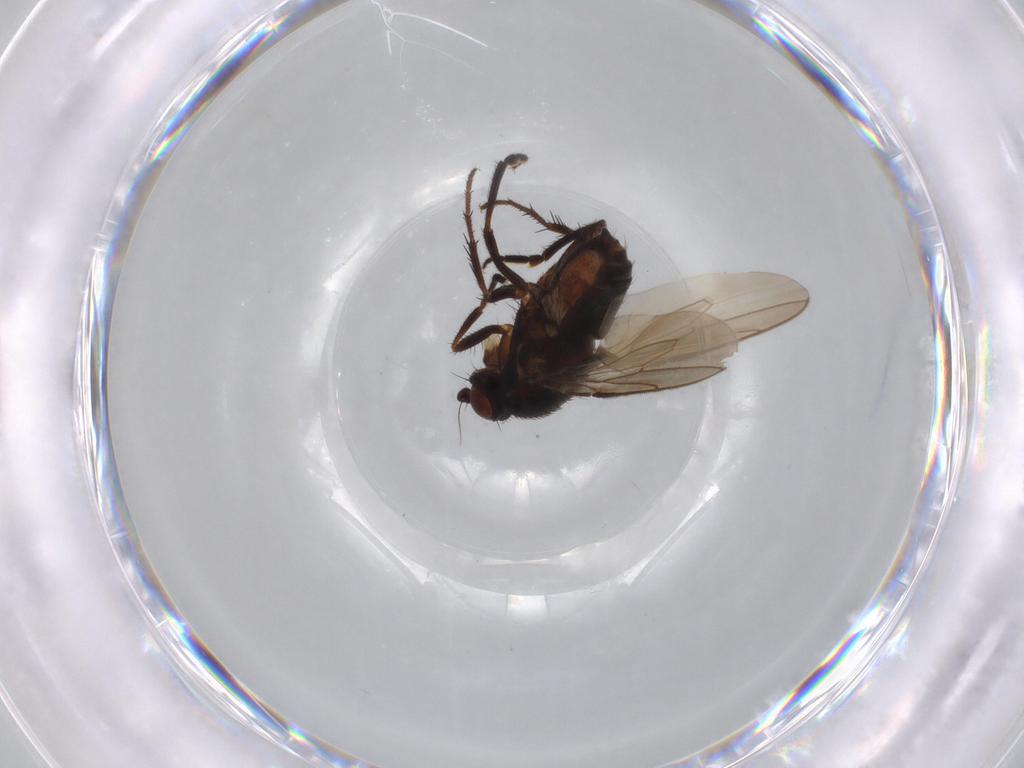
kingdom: Animalia
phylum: Arthropoda
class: Insecta
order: Diptera
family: Sphaeroceridae
